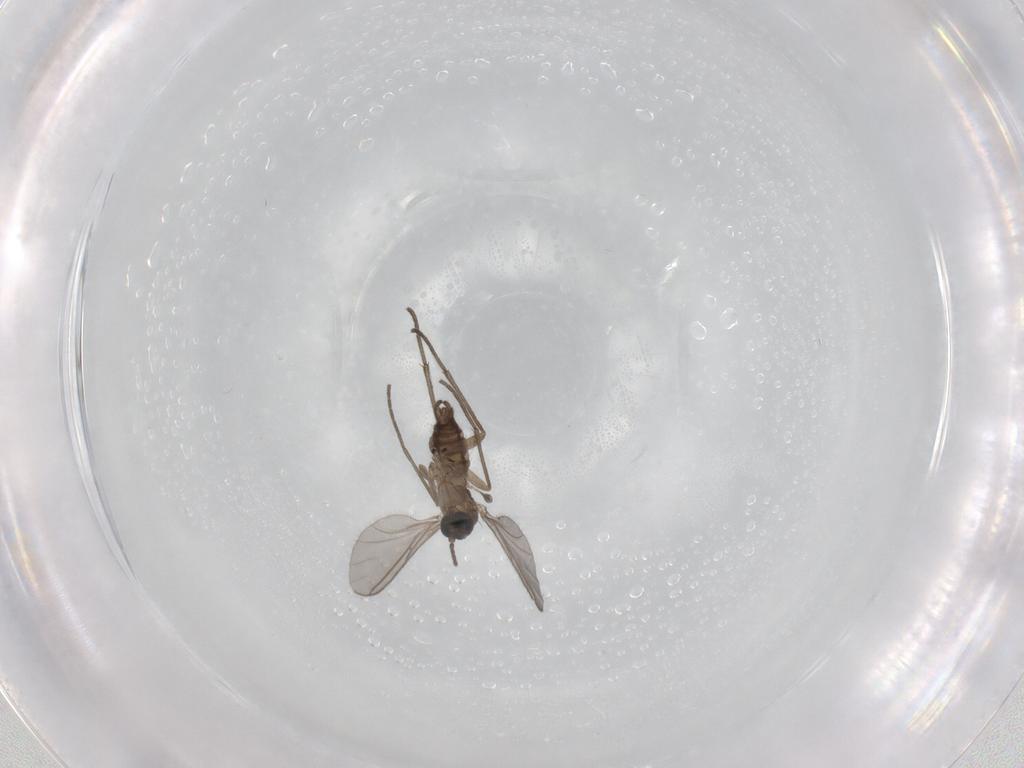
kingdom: Animalia
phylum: Arthropoda
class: Insecta
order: Diptera
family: Sciaridae
